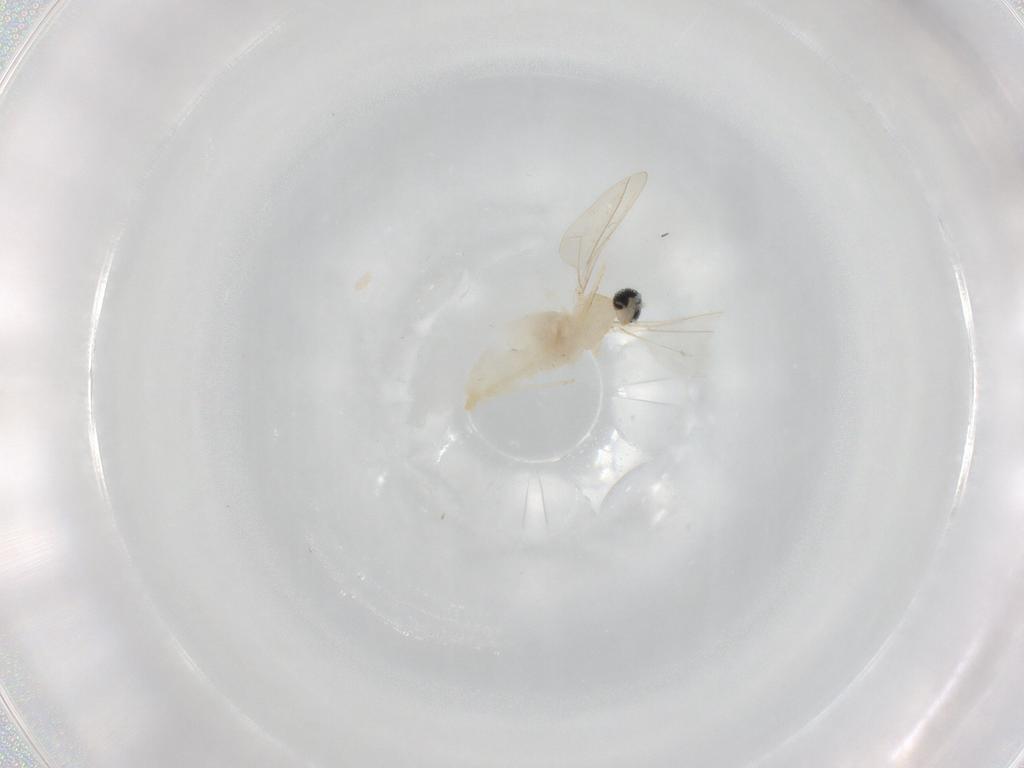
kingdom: Animalia
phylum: Arthropoda
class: Insecta
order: Diptera
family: Cecidomyiidae
